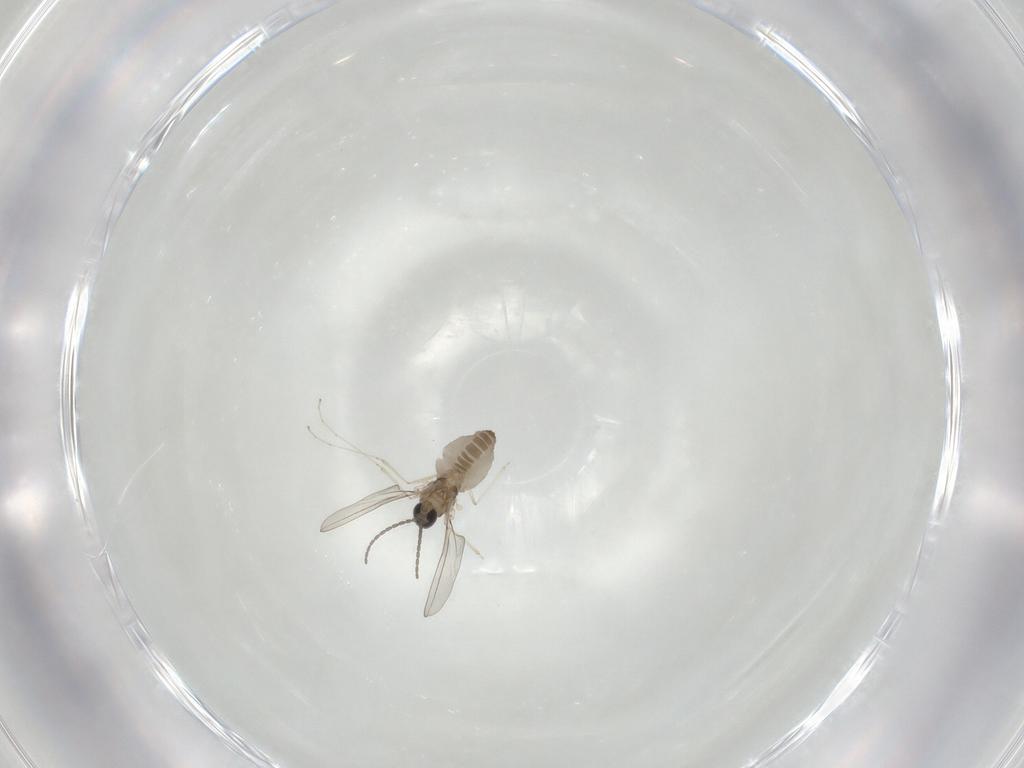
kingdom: Animalia
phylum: Arthropoda
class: Insecta
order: Diptera
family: Cecidomyiidae
